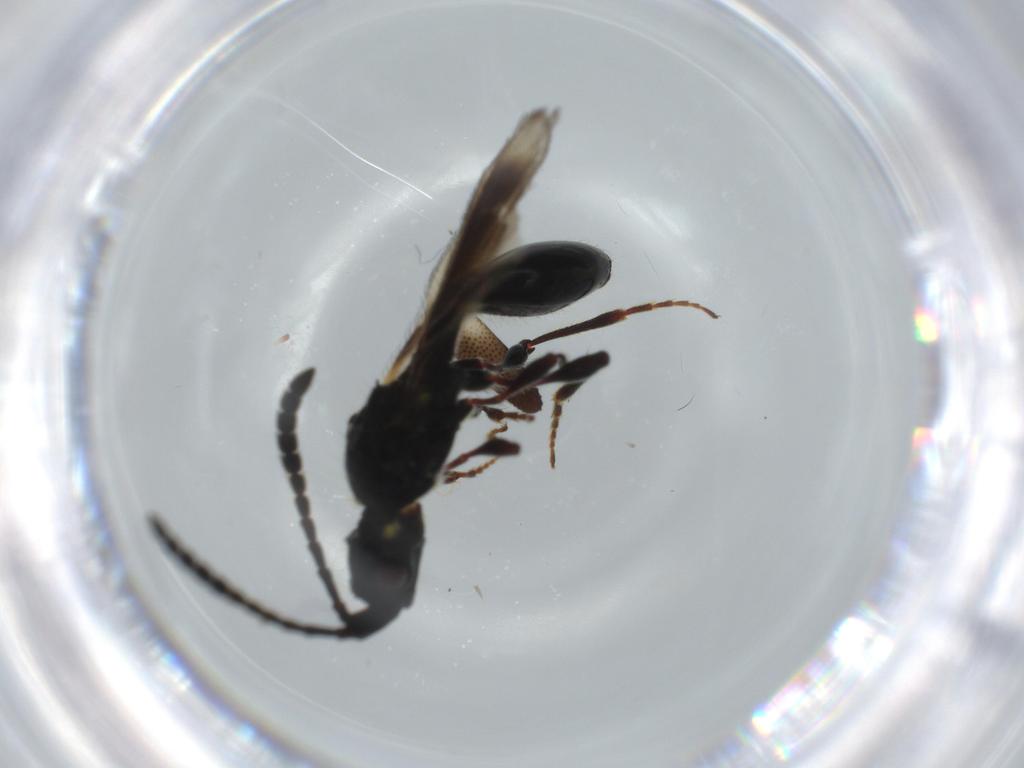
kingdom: Animalia
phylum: Arthropoda
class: Insecta
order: Hymenoptera
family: Diapriidae
